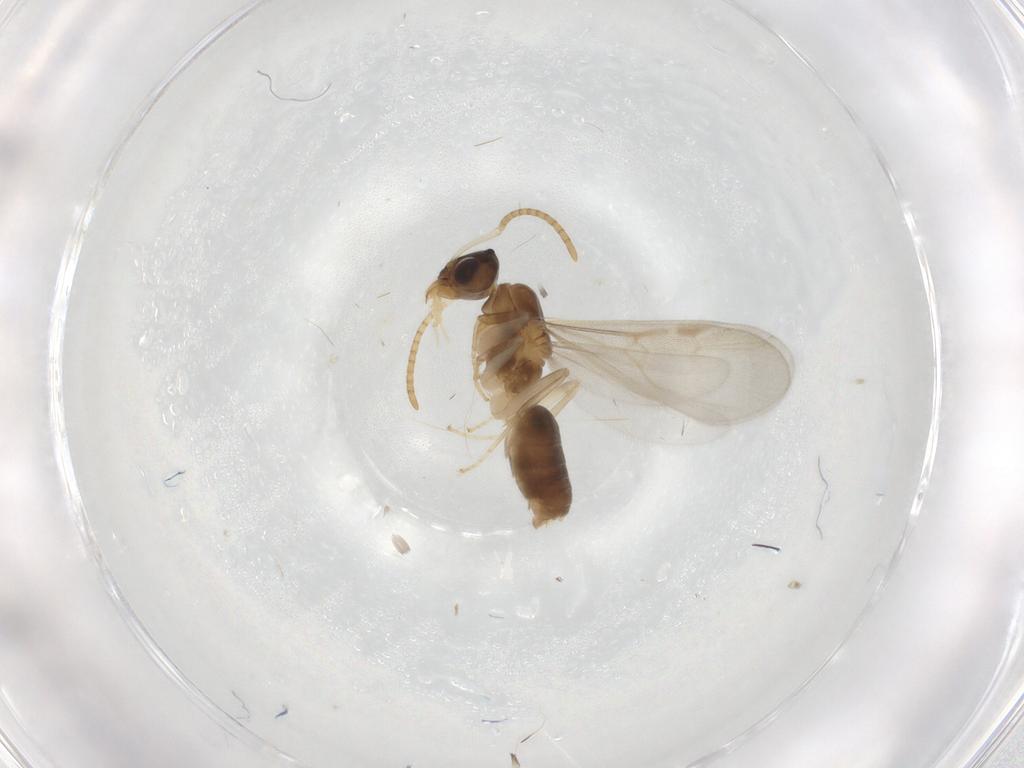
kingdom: Animalia
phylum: Arthropoda
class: Insecta
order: Hymenoptera
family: Formicidae
